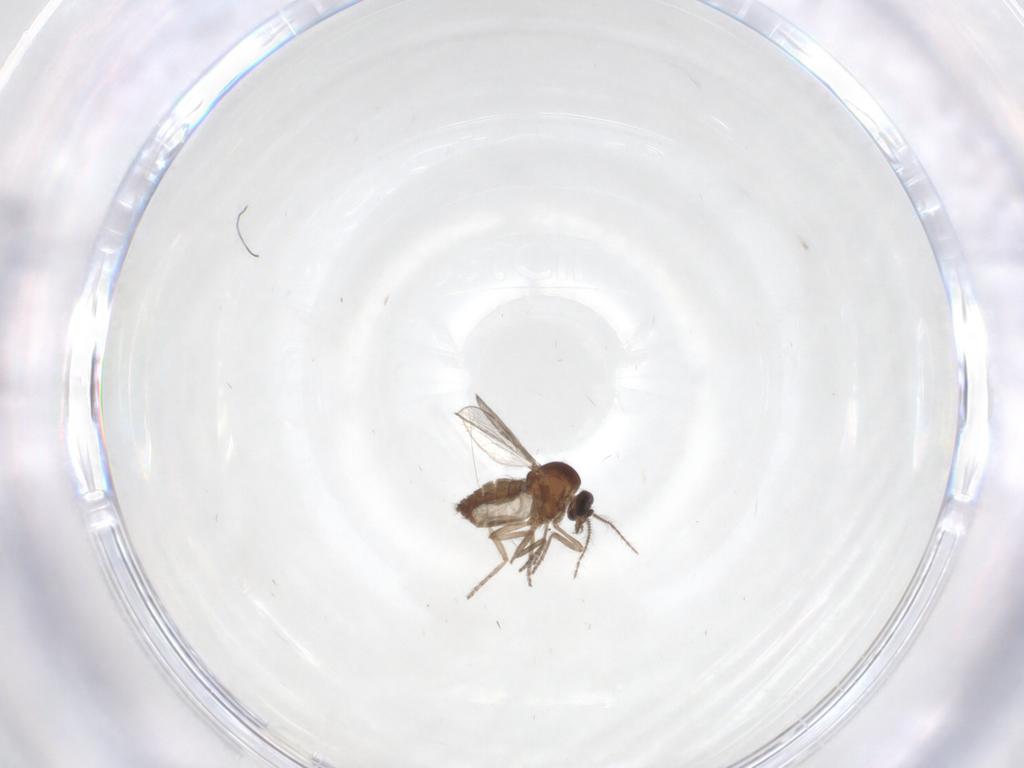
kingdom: Animalia
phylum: Arthropoda
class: Insecta
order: Diptera
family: Ceratopogonidae
